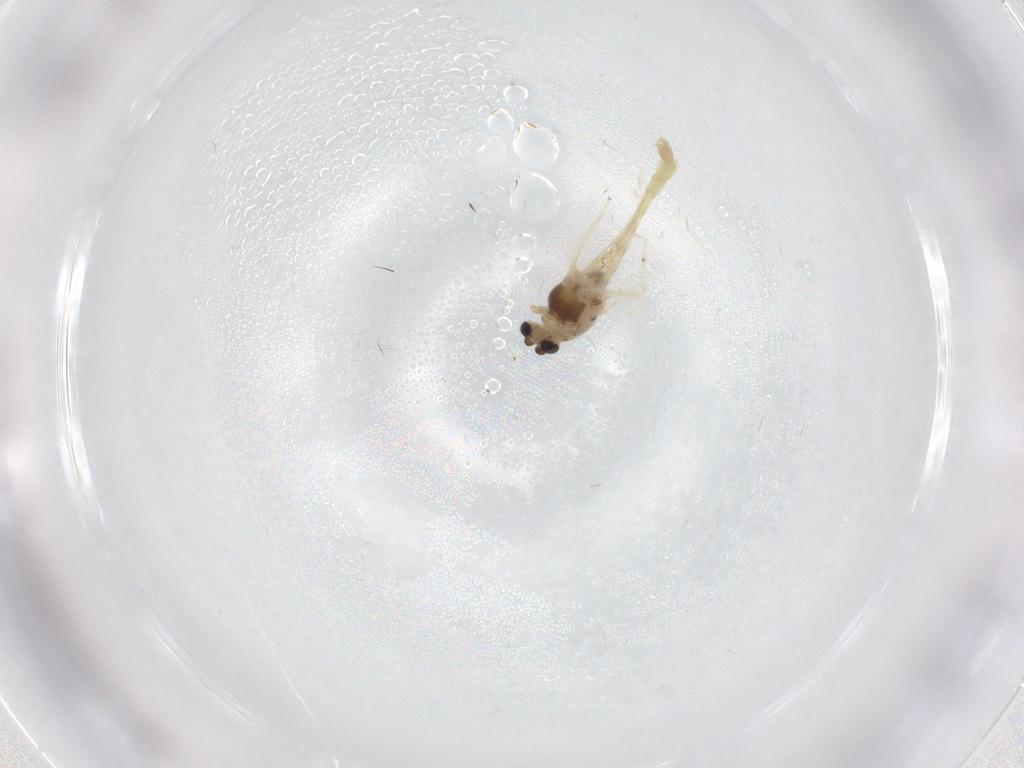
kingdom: Animalia
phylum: Arthropoda
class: Insecta
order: Diptera
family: Chironomidae
